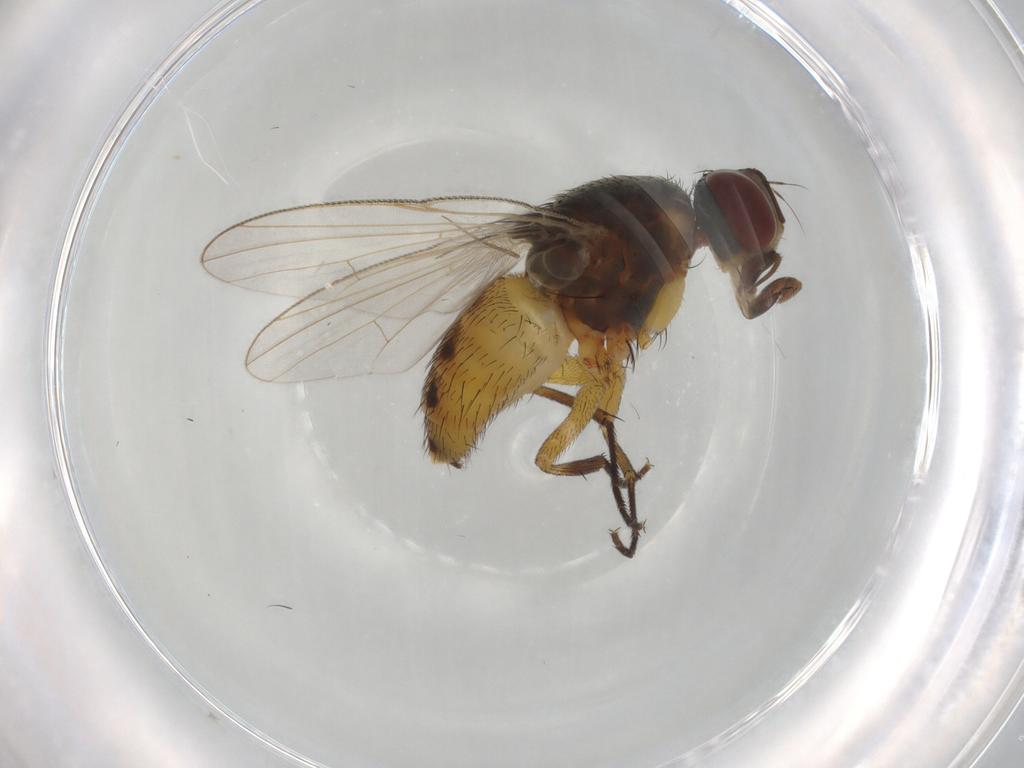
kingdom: Animalia
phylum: Arthropoda
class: Insecta
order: Diptera
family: Muscidae
